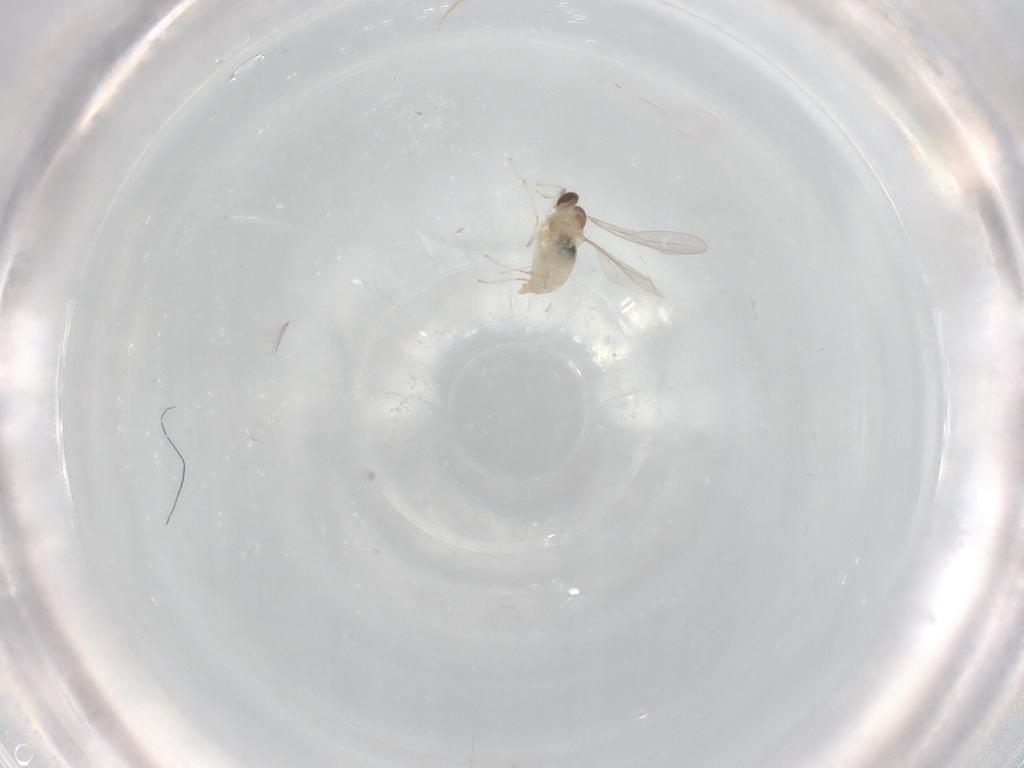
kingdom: Animalia
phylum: Arthropoda
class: Insecta
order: Diptera
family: Cecidomyiidae
